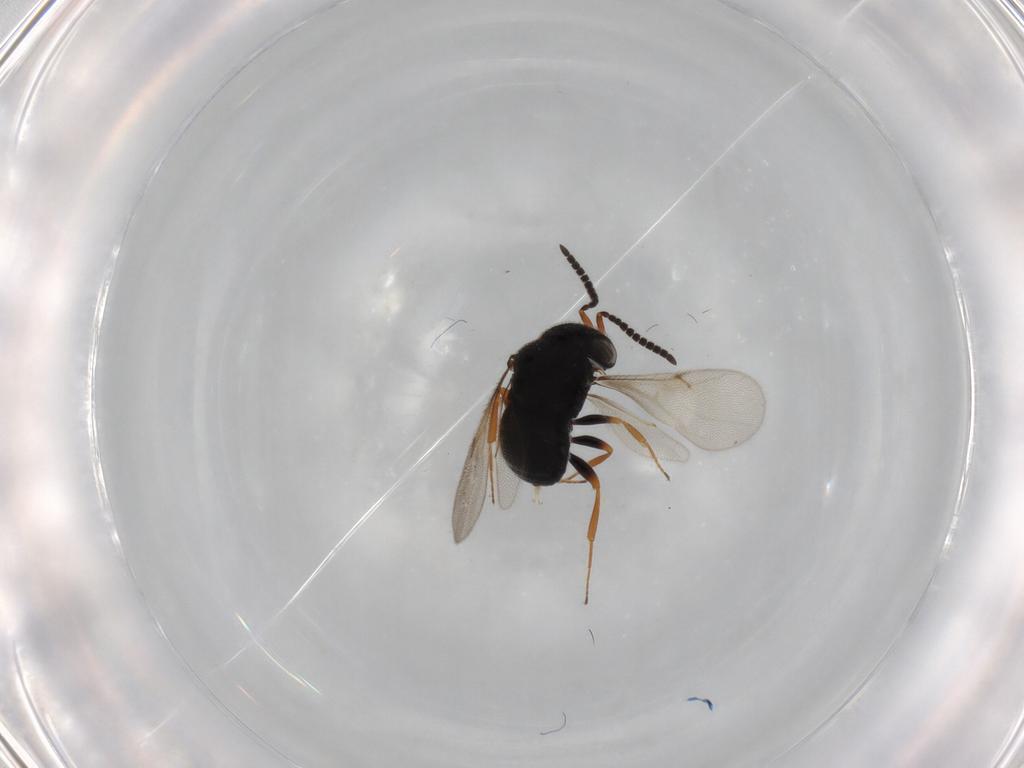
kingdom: Animalia
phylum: Arthropoda
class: Insecta
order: Hymenoptera
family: Scelionidae
